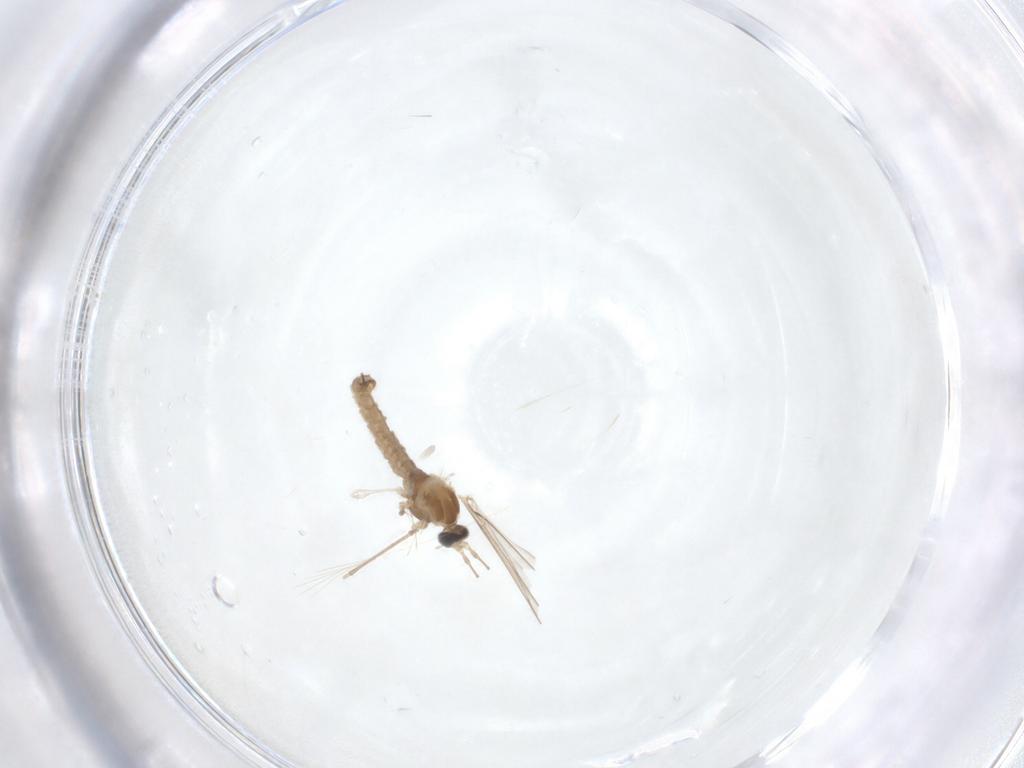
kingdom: Animalia
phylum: Arthropoda
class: Insecta
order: Diptera
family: Cecidomyiidae
